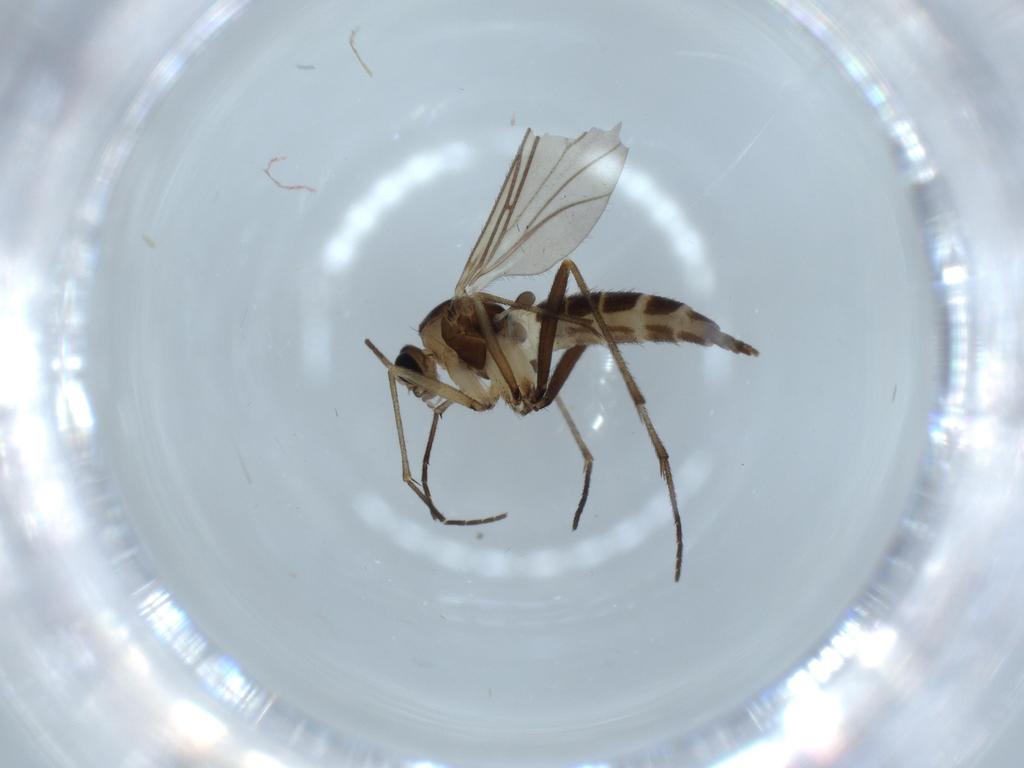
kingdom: Animalia
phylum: Arthropoda
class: Insecta
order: Diptera
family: Sciaridae
